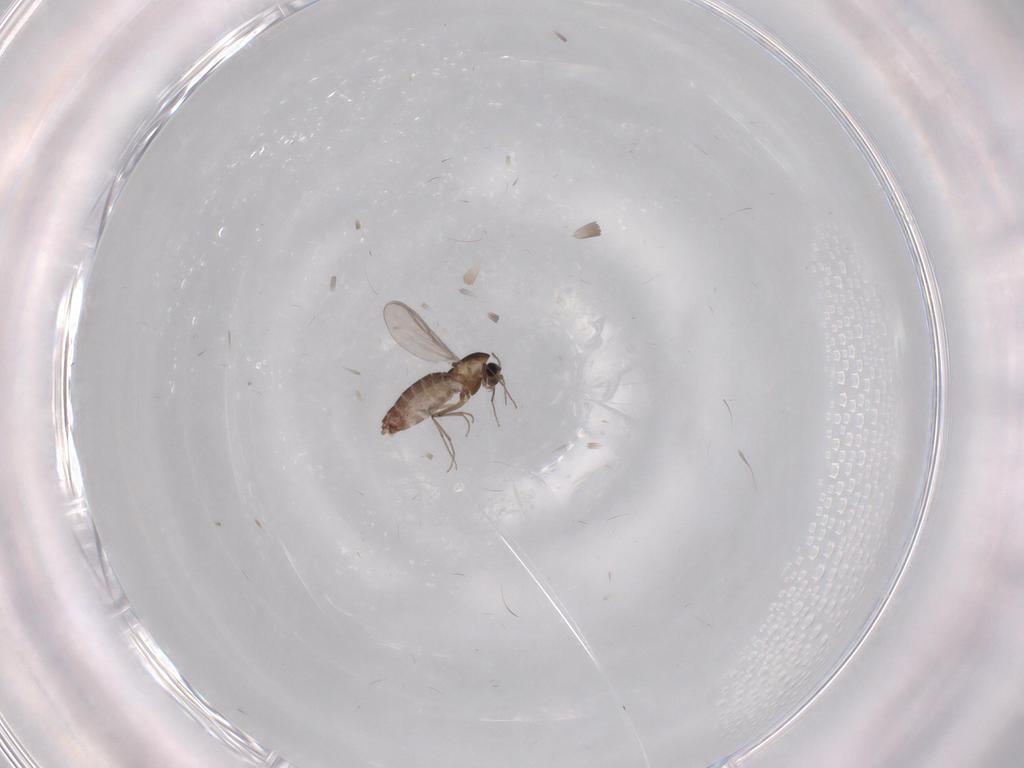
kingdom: Animalia
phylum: Arthropoda
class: Insecta
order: Diptera
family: Chironomidae
